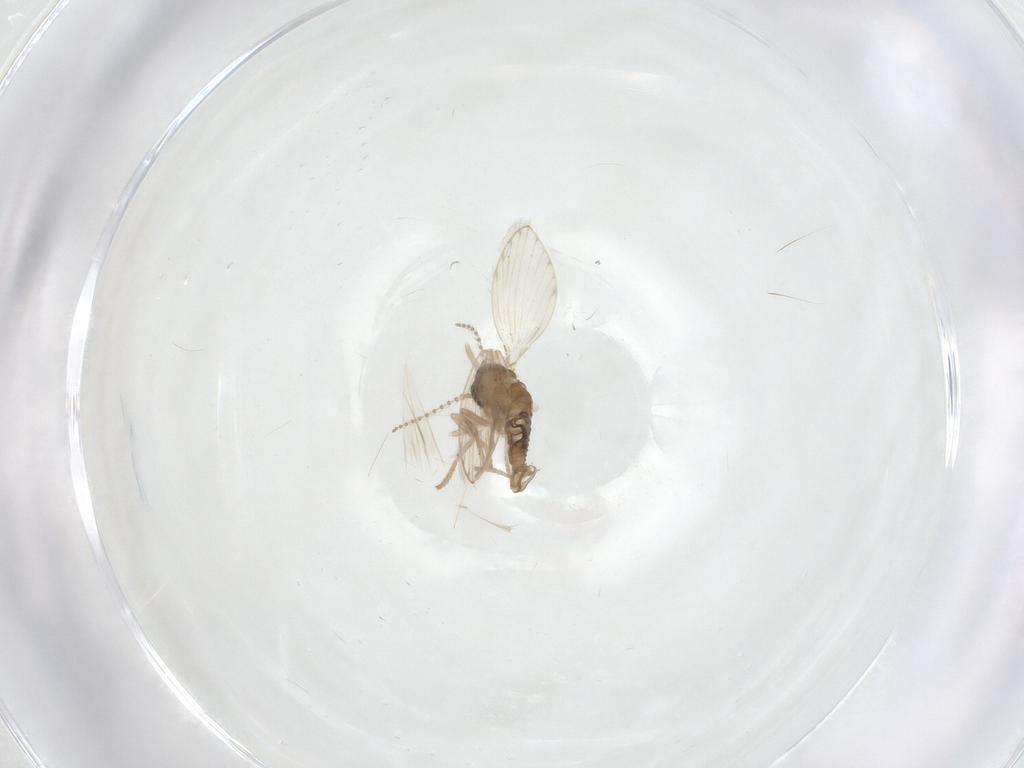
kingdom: Animalia
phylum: Arthropoda
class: Insecta
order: Diptera
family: Psychodidae
